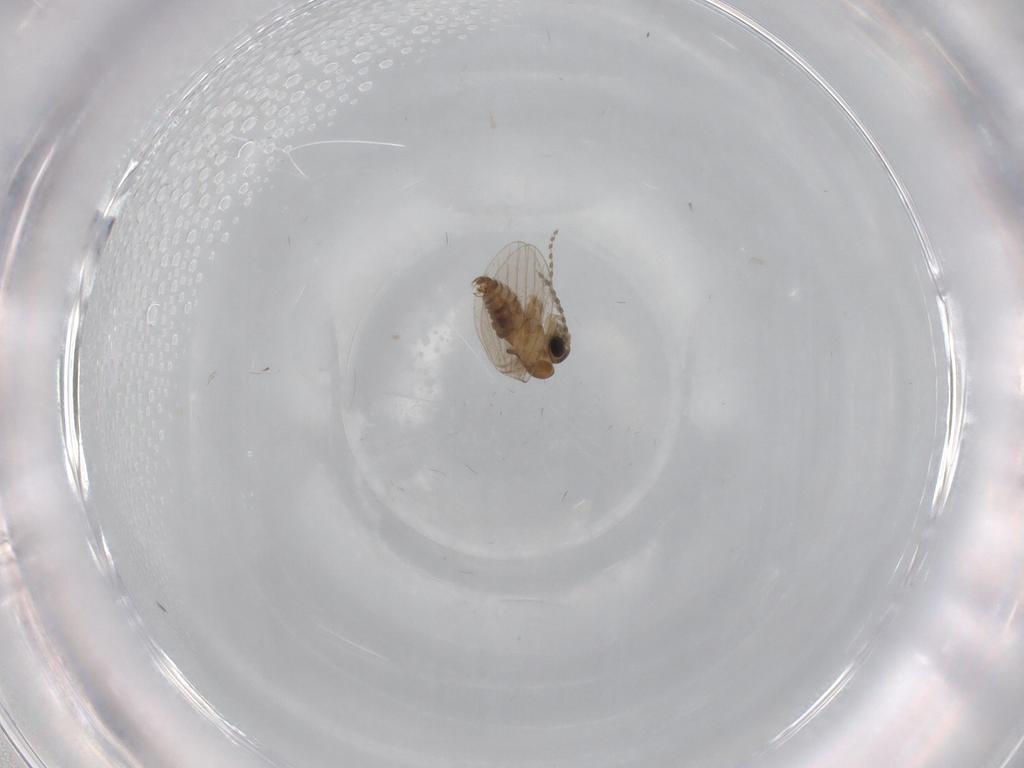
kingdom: Animalia
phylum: Arthropoda
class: Insecta
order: Diptera
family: Psychodidae
